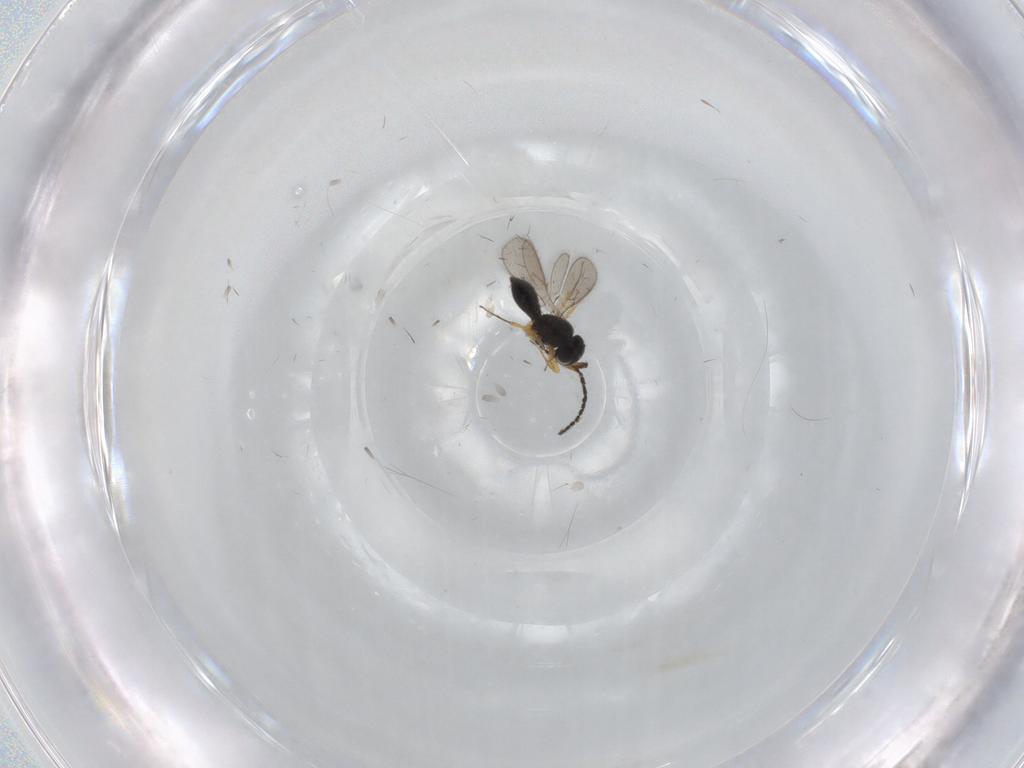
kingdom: Animalia
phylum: Arthropoda
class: Insecta
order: Hymenoptera
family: Scelionidae
